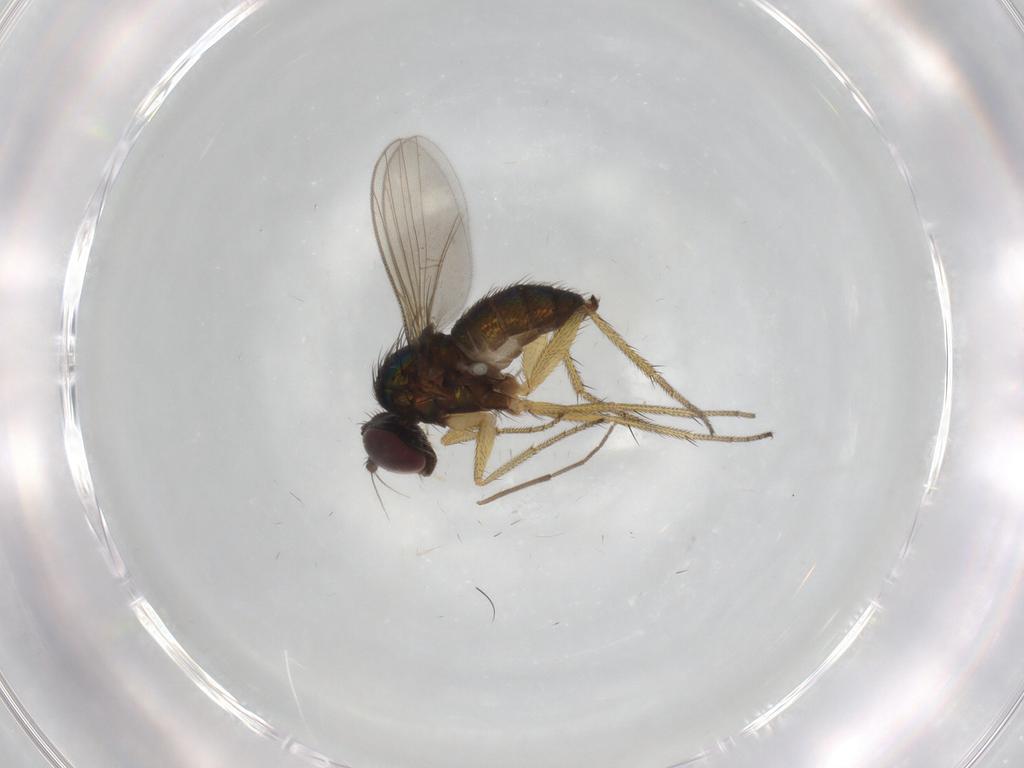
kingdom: Animalia
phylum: Arthropoda
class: Insecta
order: Diptera
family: Chironomidae
